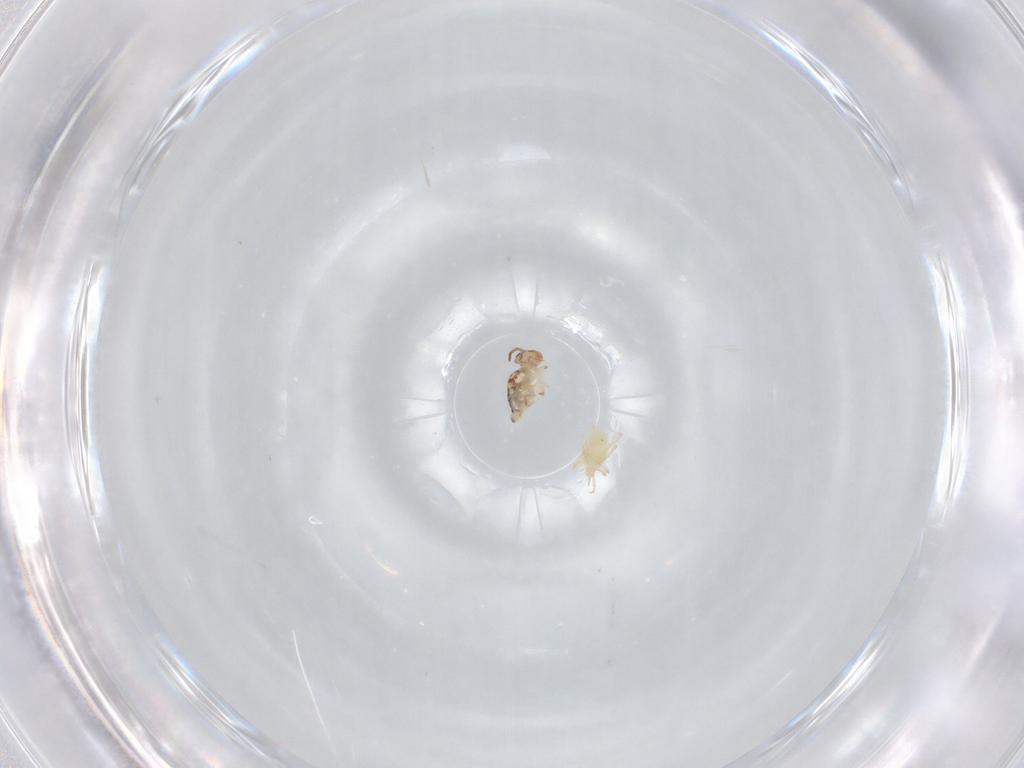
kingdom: Animalia
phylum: Arthropoda
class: Collembola
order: Symphypleona
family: Bourletiellidae
